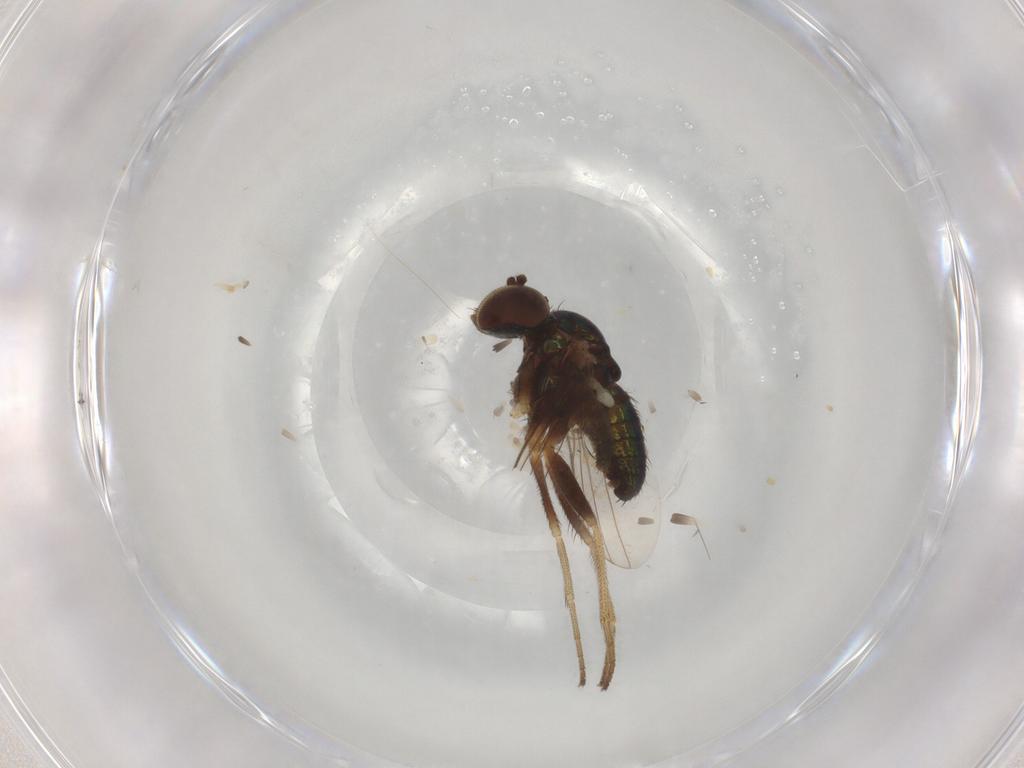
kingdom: Animalia
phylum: Arthropoda
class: Insecta
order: Diptera
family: Dolichopodidae
